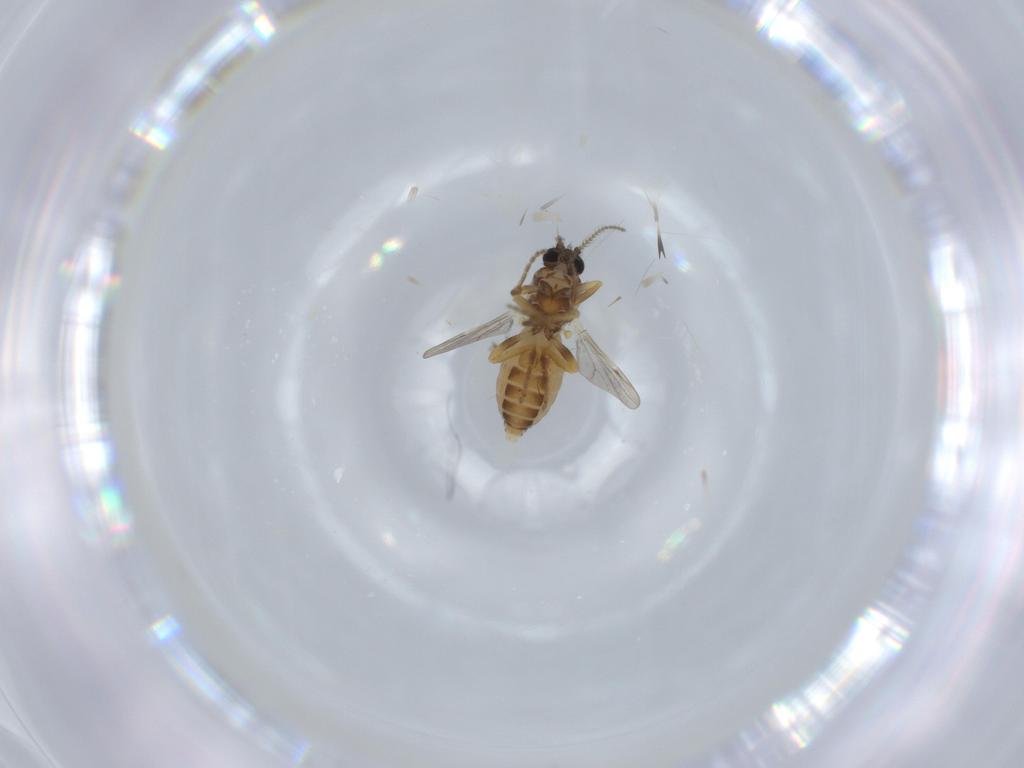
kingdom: Animalia
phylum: Arthropoda
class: Insecta
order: Diptera
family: Ceratopogonidae
